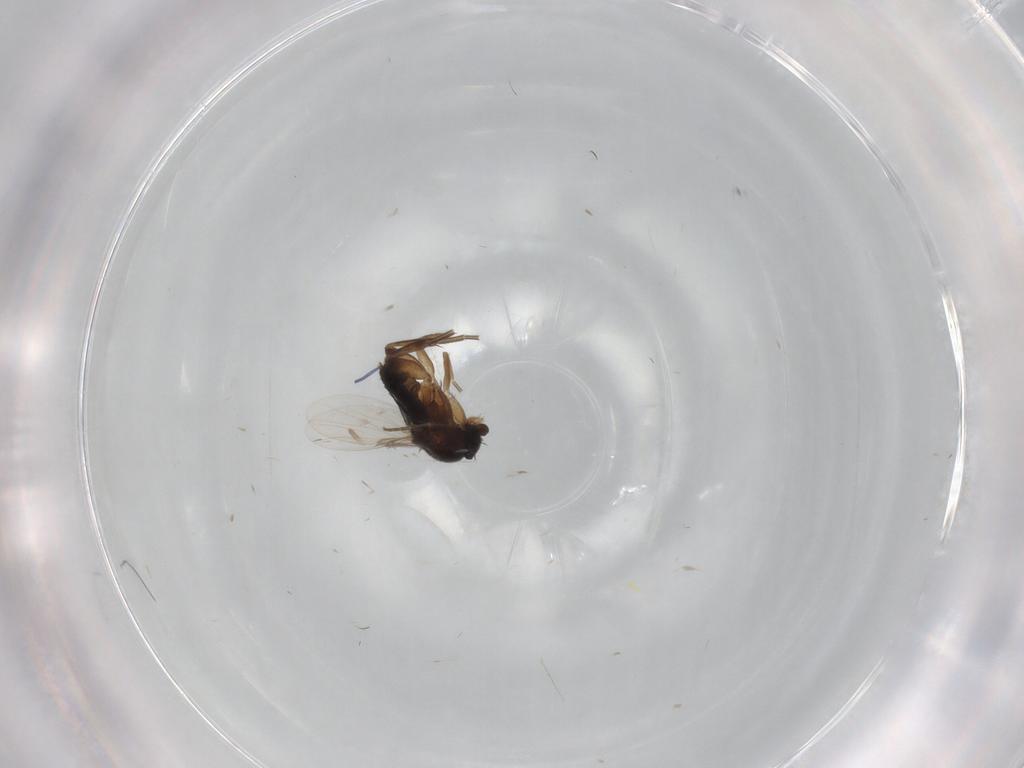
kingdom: Animalia
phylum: Arthropoda
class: Insecta
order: Diptera
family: Phoridae
